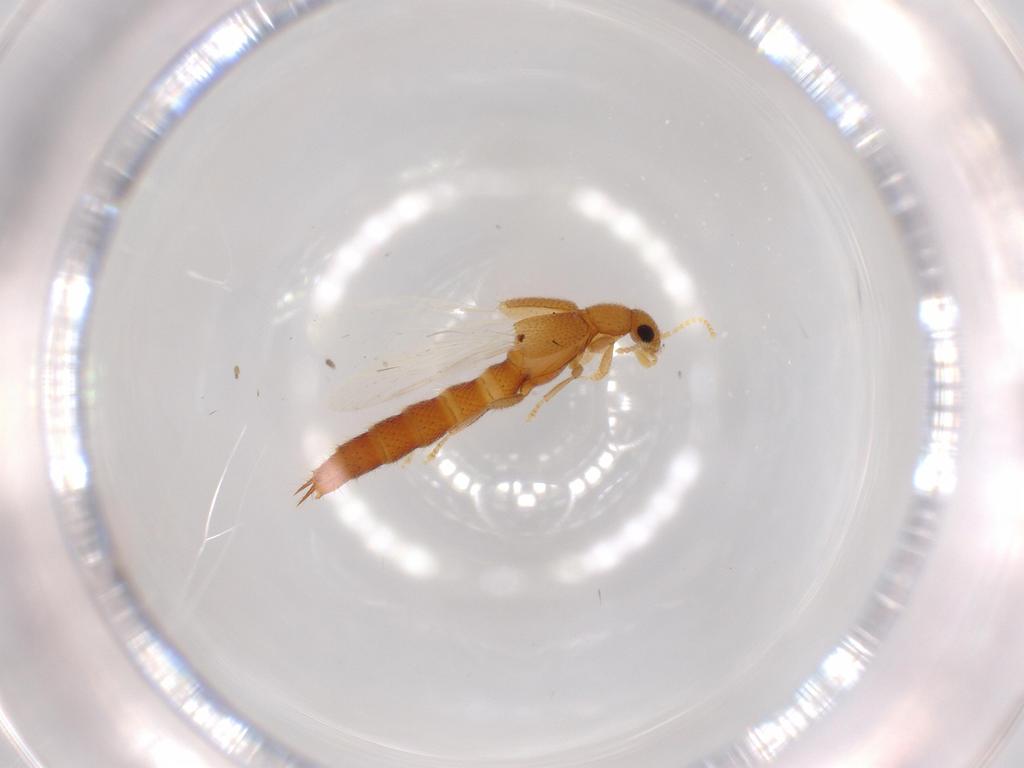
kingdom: Animalia
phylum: Arthropoda
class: Insecta
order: Coleoptera
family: Staphylinidae
